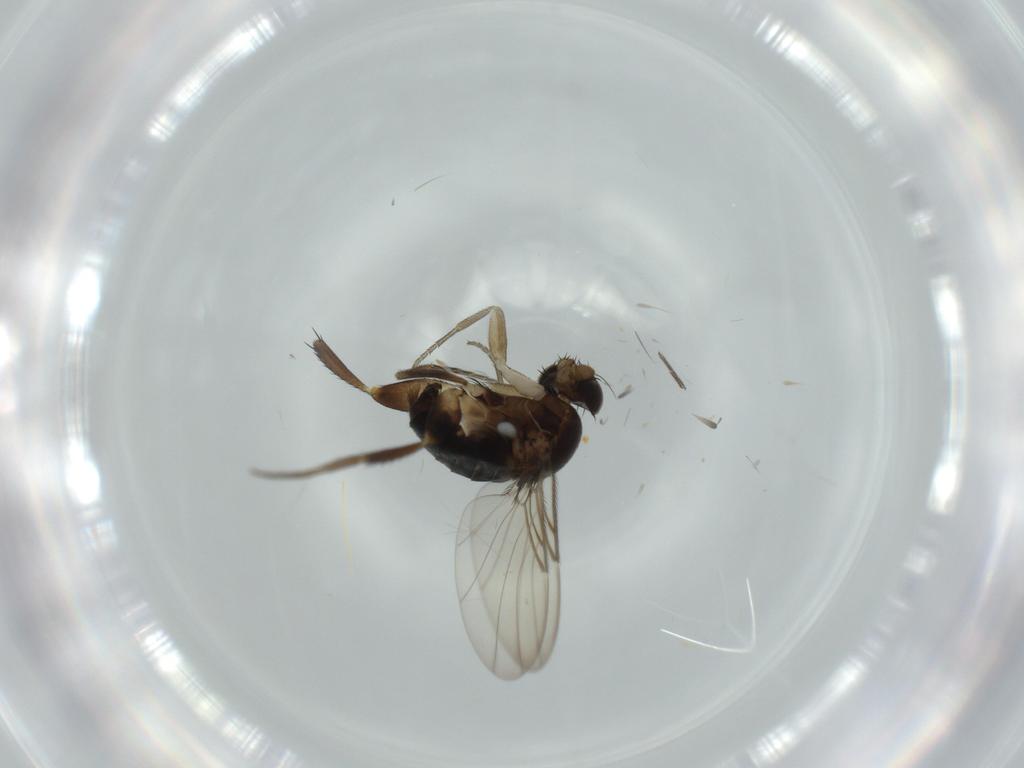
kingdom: Animalia
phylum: Arthropoda
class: Insecta
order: Diptera
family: Phoridae
